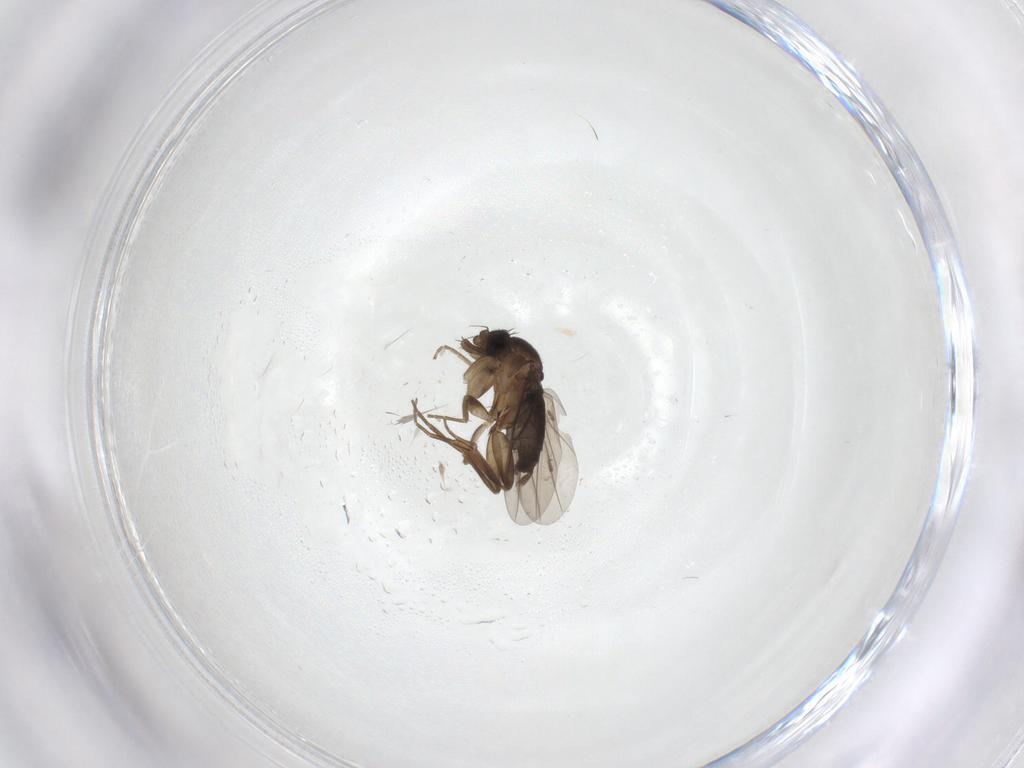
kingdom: Animalia
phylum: Arthropoda
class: Insecta
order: Diptera
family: Phoridae
